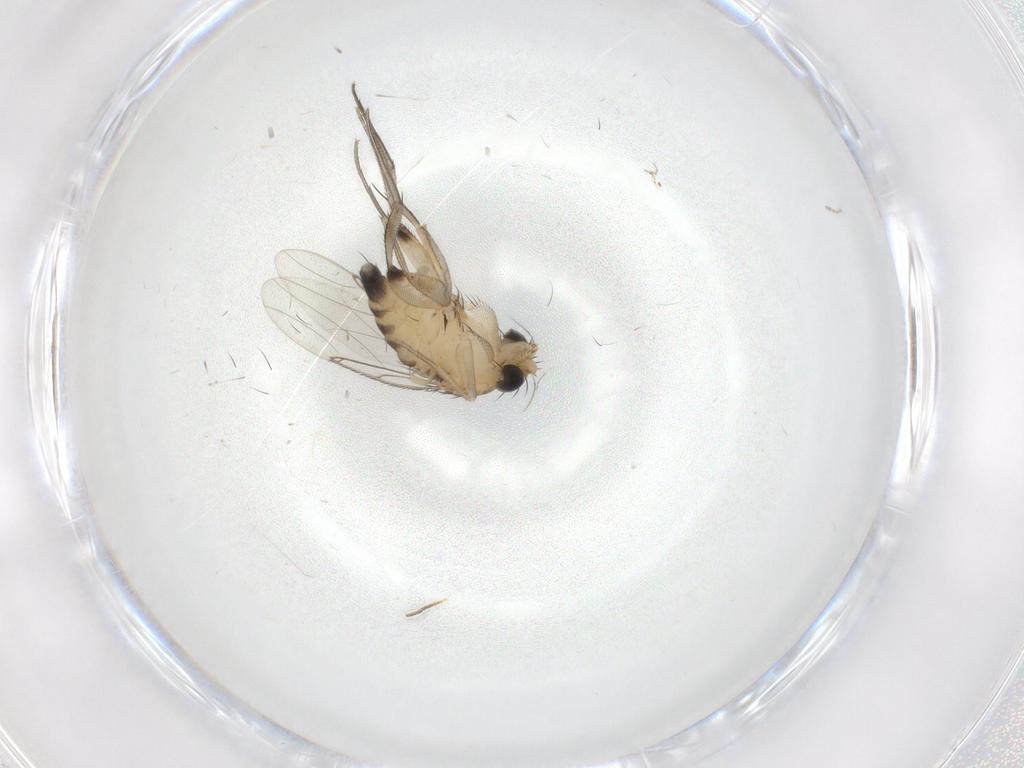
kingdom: Animalia
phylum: Arthropoda
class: Insecta
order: Diptera
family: Phoridae
